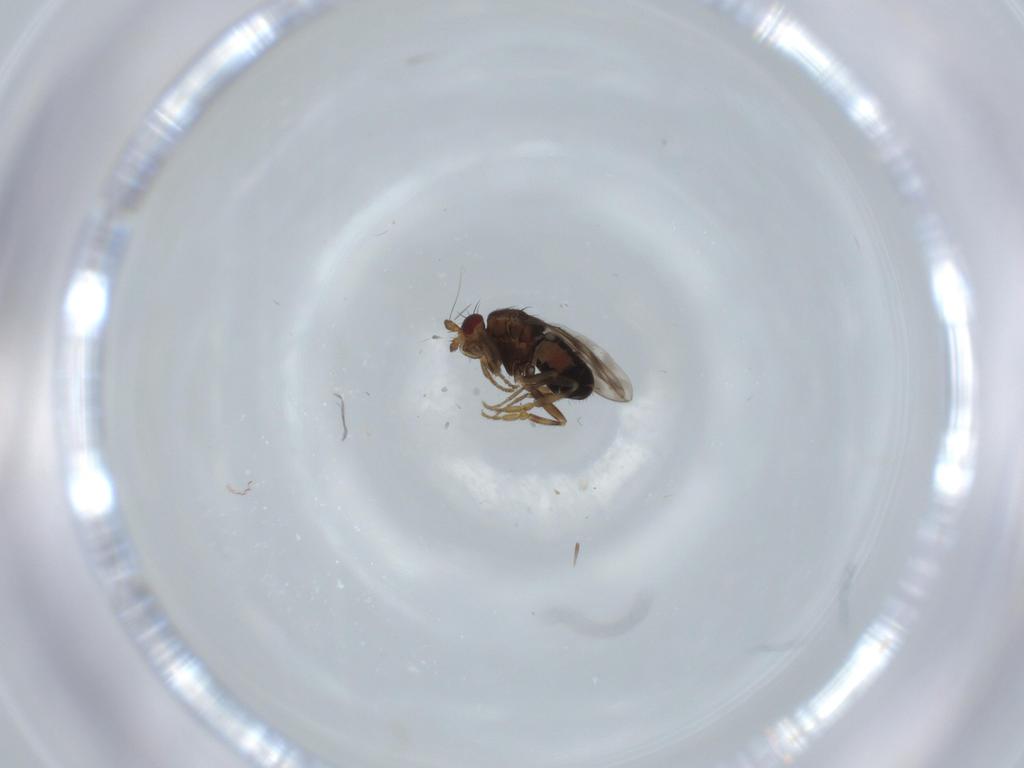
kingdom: Animalia
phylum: Arthropoda
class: Insecta
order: Diptera
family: Sphaeroceridae
